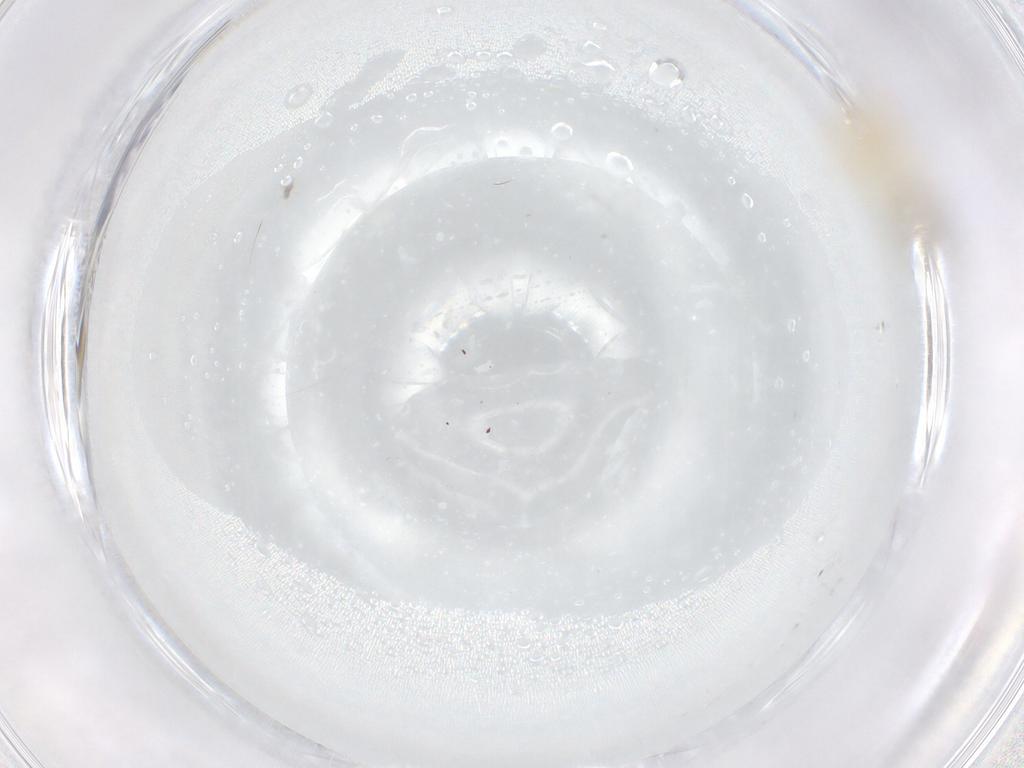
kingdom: Animalia
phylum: Arthropoda
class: Insecta
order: Psocodea
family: Caeciliusidae
